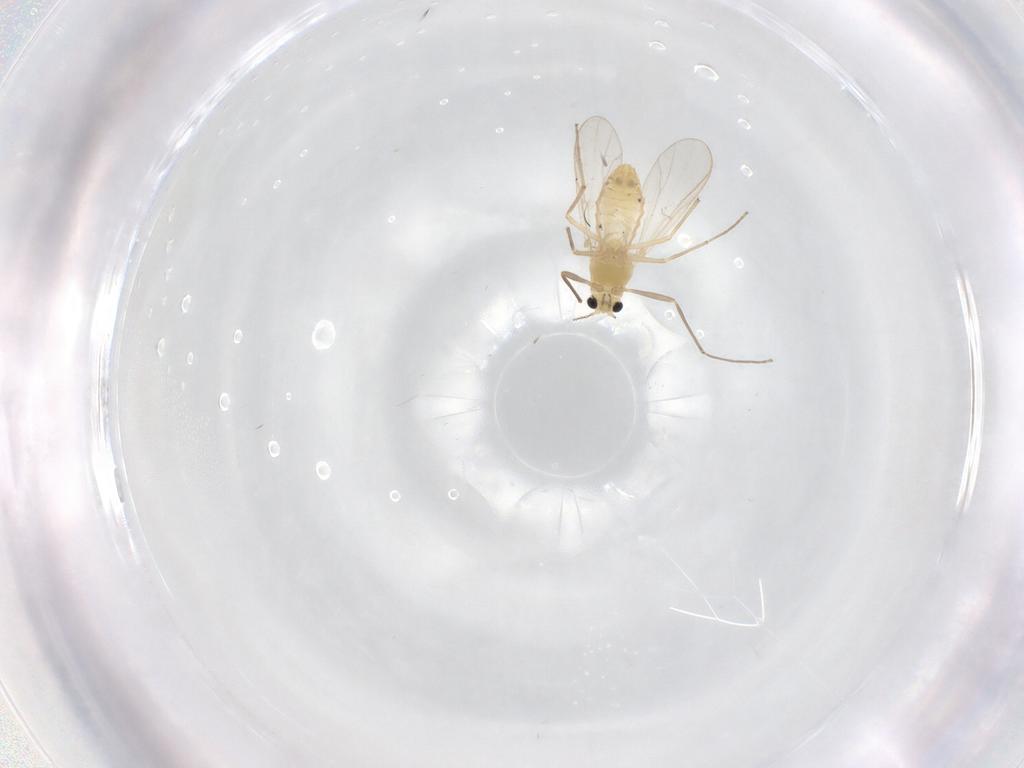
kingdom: Animalia
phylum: Arthropoda
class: Insecta
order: Diptera
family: Chironomidae
